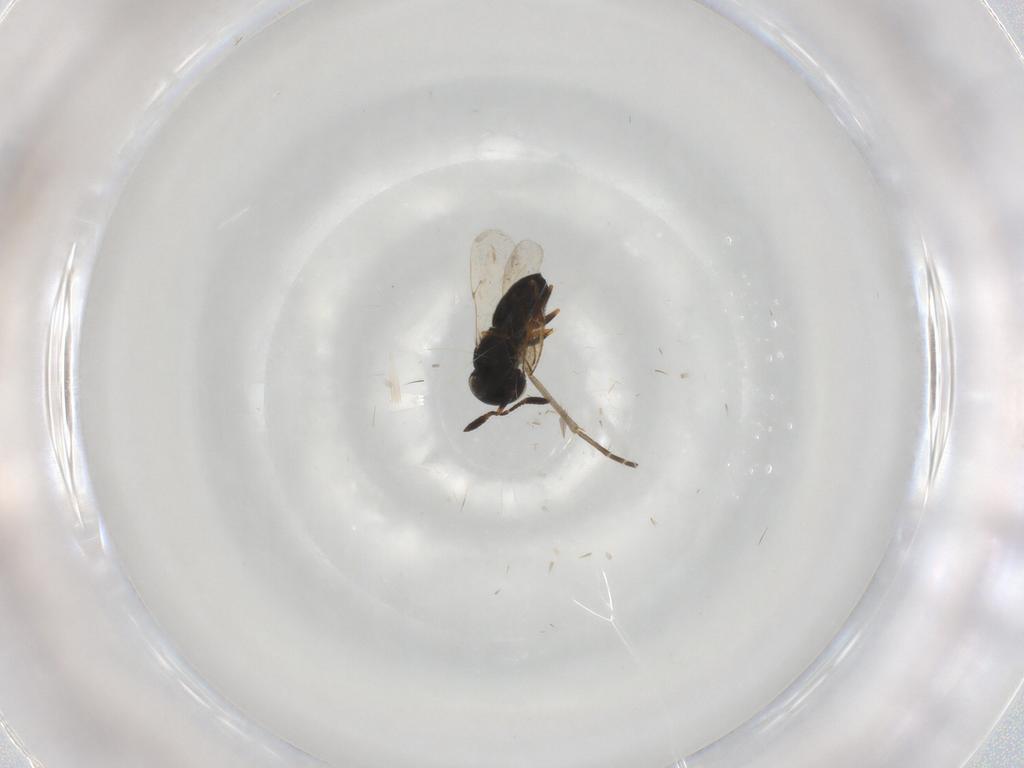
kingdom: Animalia
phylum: Arthropoda
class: Insecta
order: Hymenoptera
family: Scelionidae
